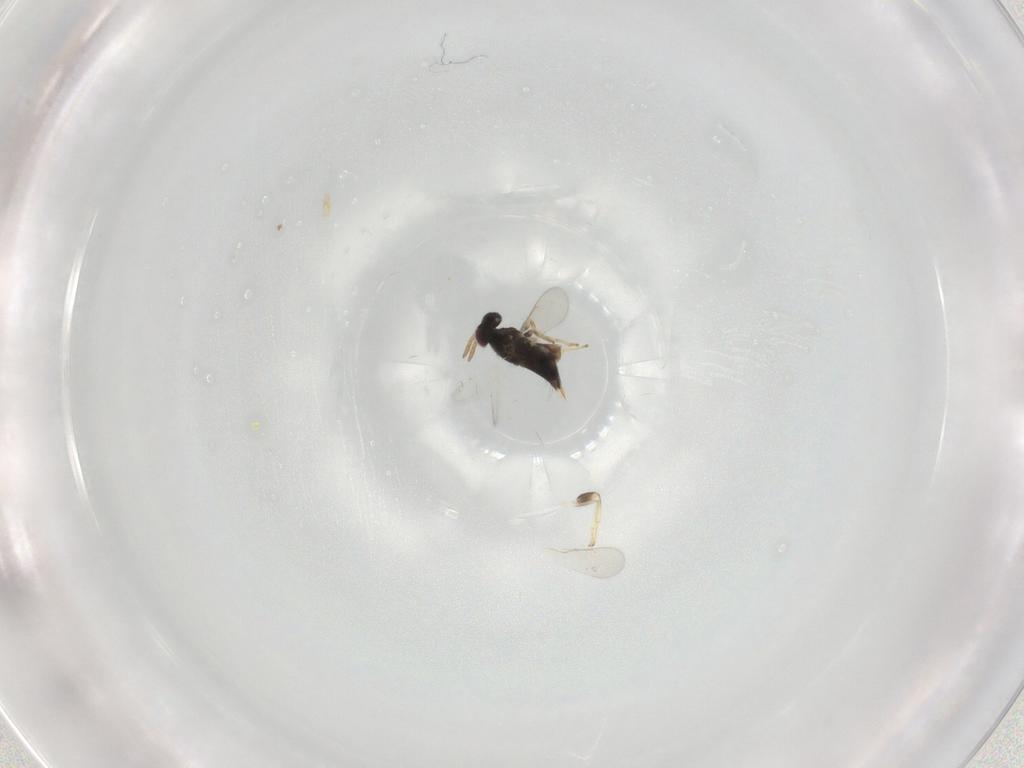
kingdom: Animalia
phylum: Arthropoda
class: Insecta
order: Hymenoptera
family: Aphelinidae
